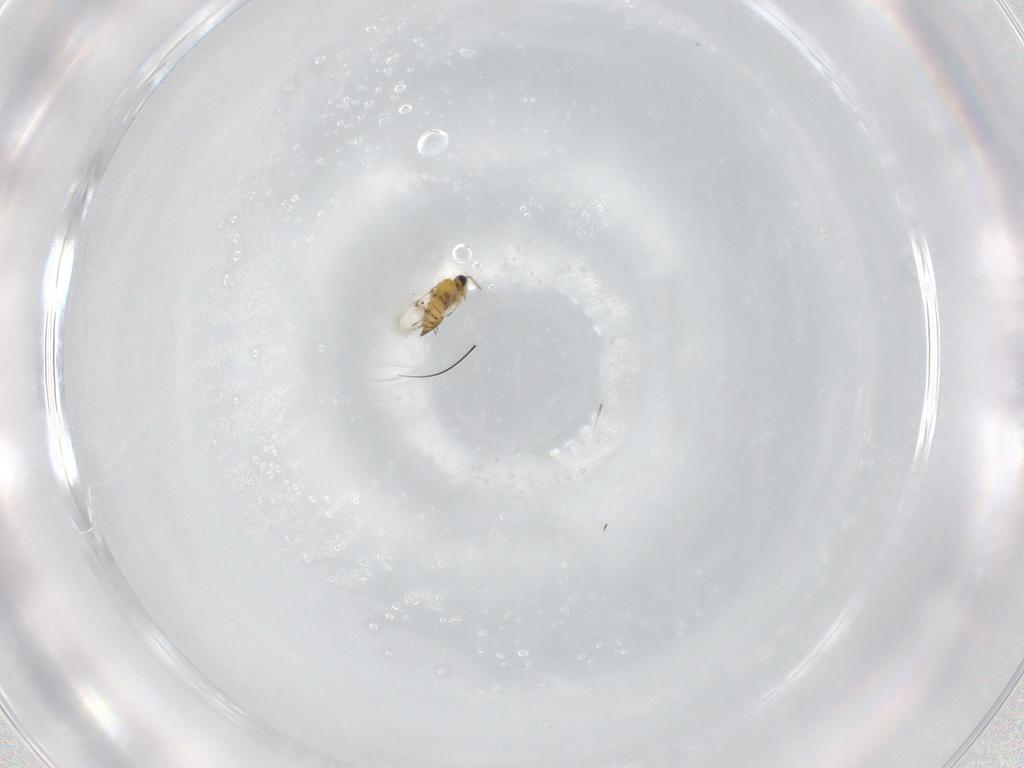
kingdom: Animalia
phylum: Arthropoda
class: Insecta
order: Hymenoptera
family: Trichogrammatidae
